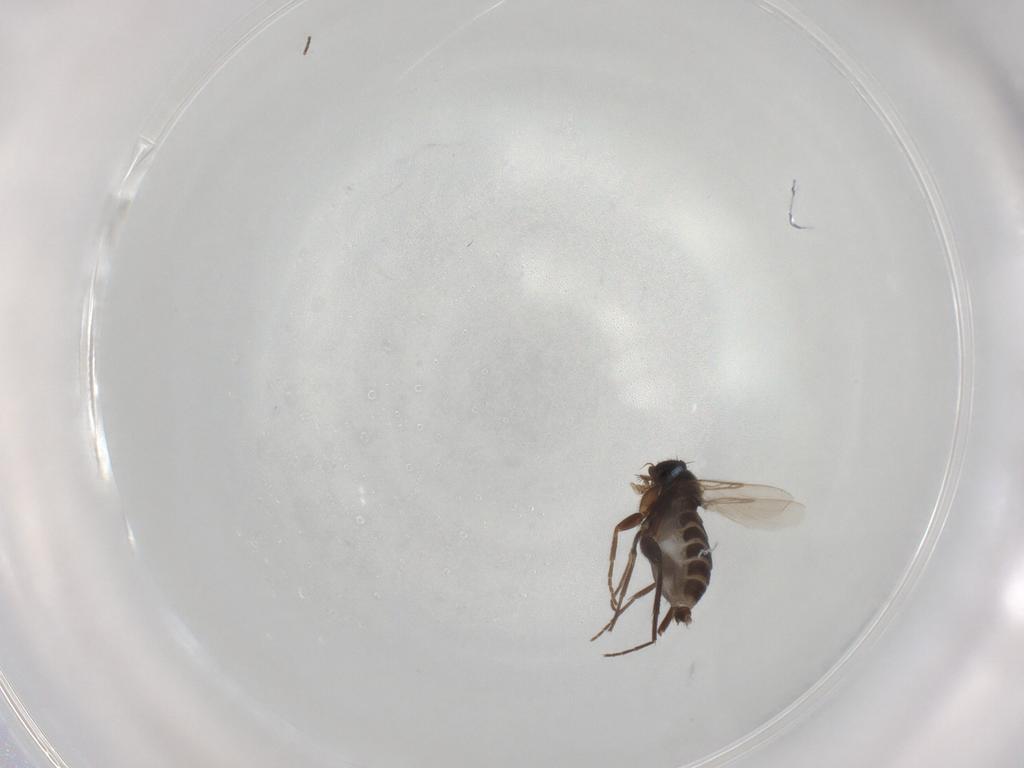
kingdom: Animalia
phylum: Arthropoda
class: Insecta
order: Diptera
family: Cecidomyiidae
